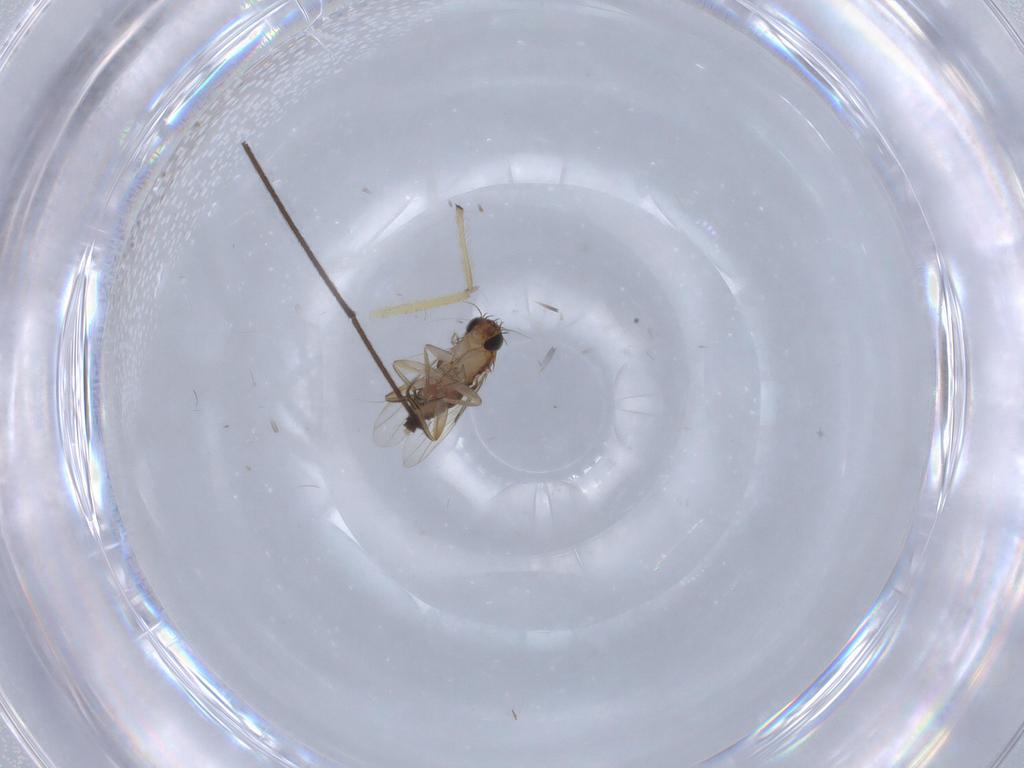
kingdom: Animalia
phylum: Arthropoda
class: Insecta
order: Diptera
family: Phoridae
